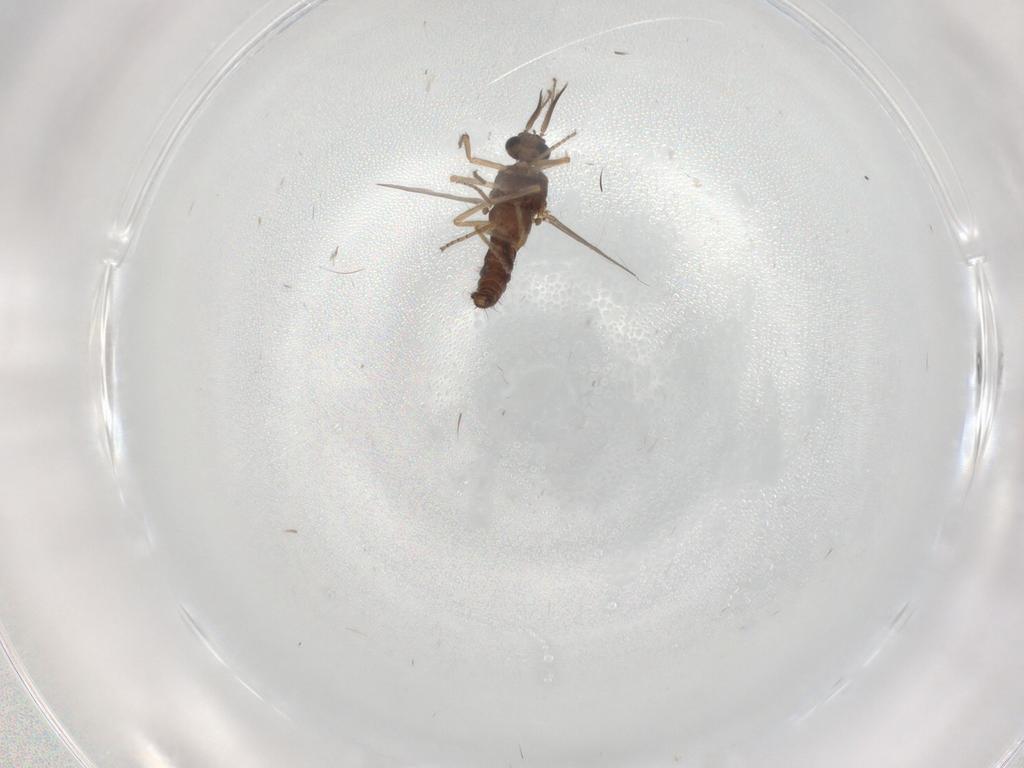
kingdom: Animalia
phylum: Arthropoda
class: Insecta
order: Diptera
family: Ceratopogonidae
